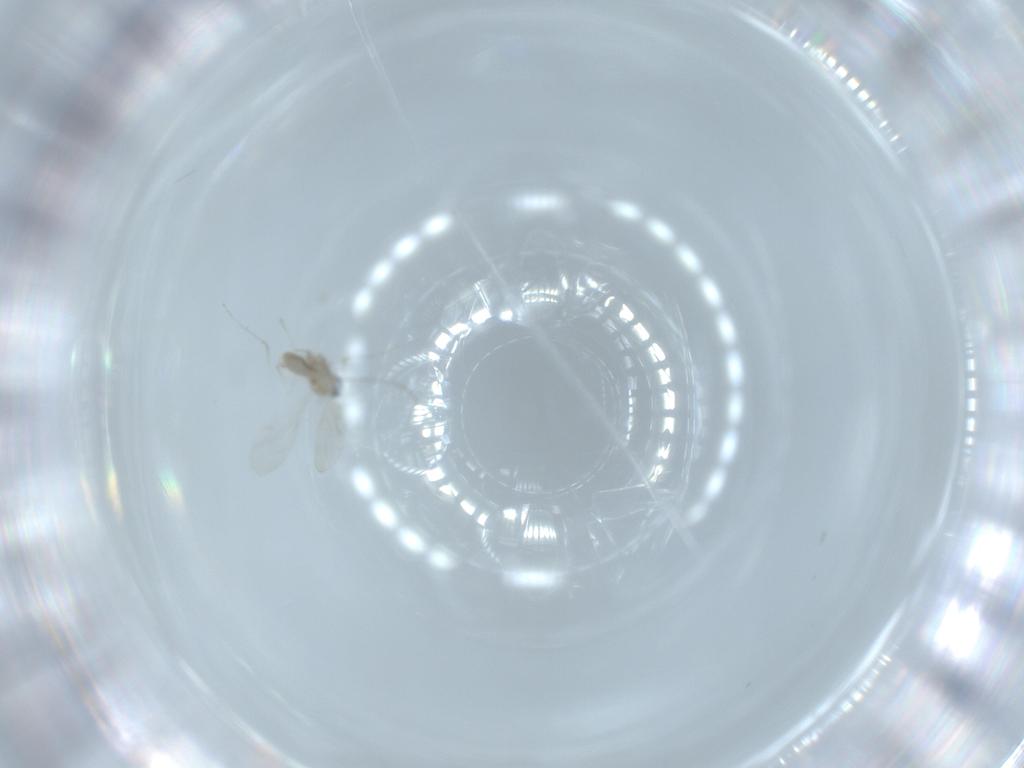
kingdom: Animalia
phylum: Arthropoda
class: Insecta
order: Diptera
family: Cecidomyiidae
